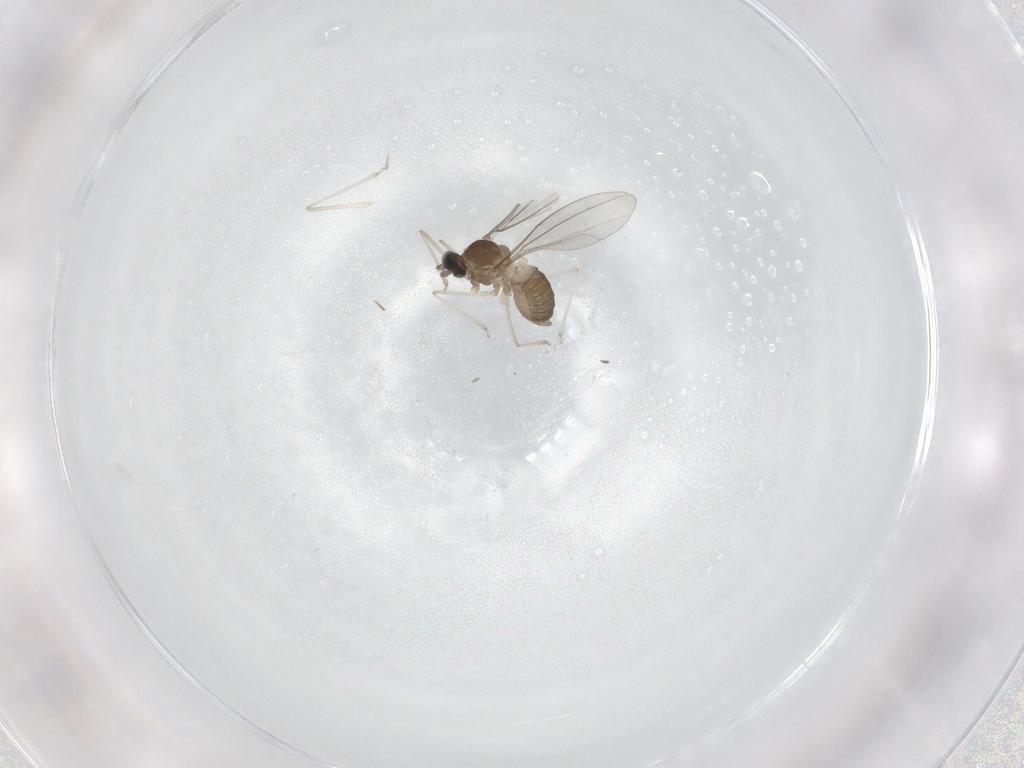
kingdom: Animalia
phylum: Arthropoda
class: Insecta
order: Diptera
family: Cecidomyiidae
